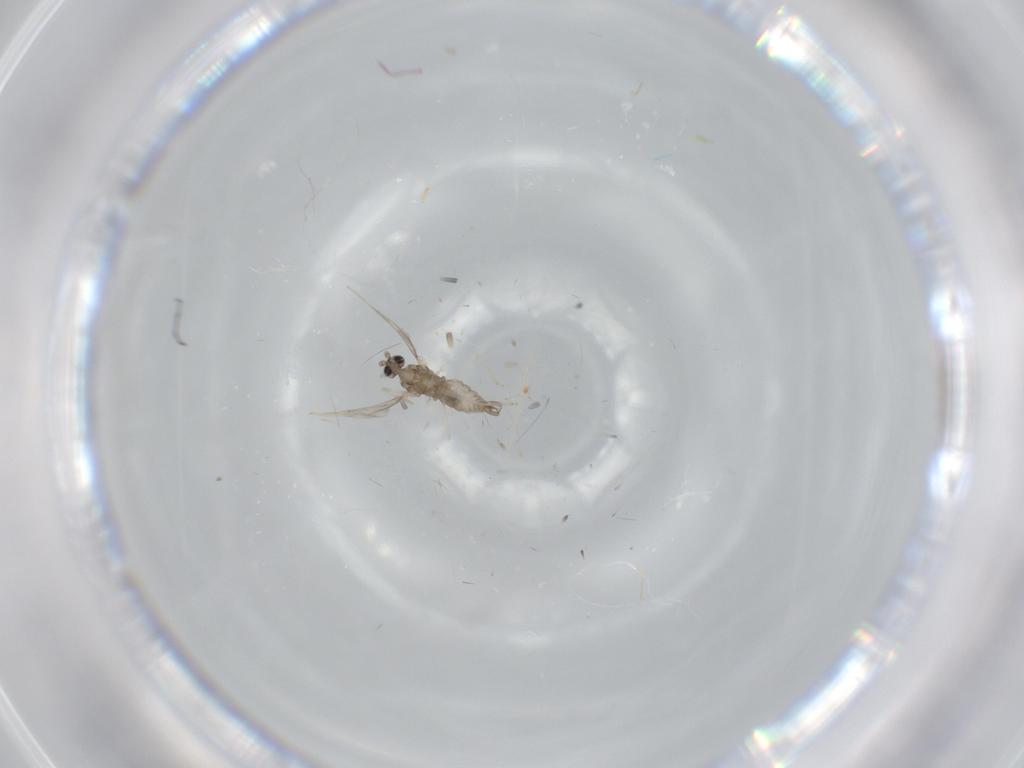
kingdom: Animalia
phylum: Arthropoda
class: Insecta
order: Diptera
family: Cecidomyiidae
